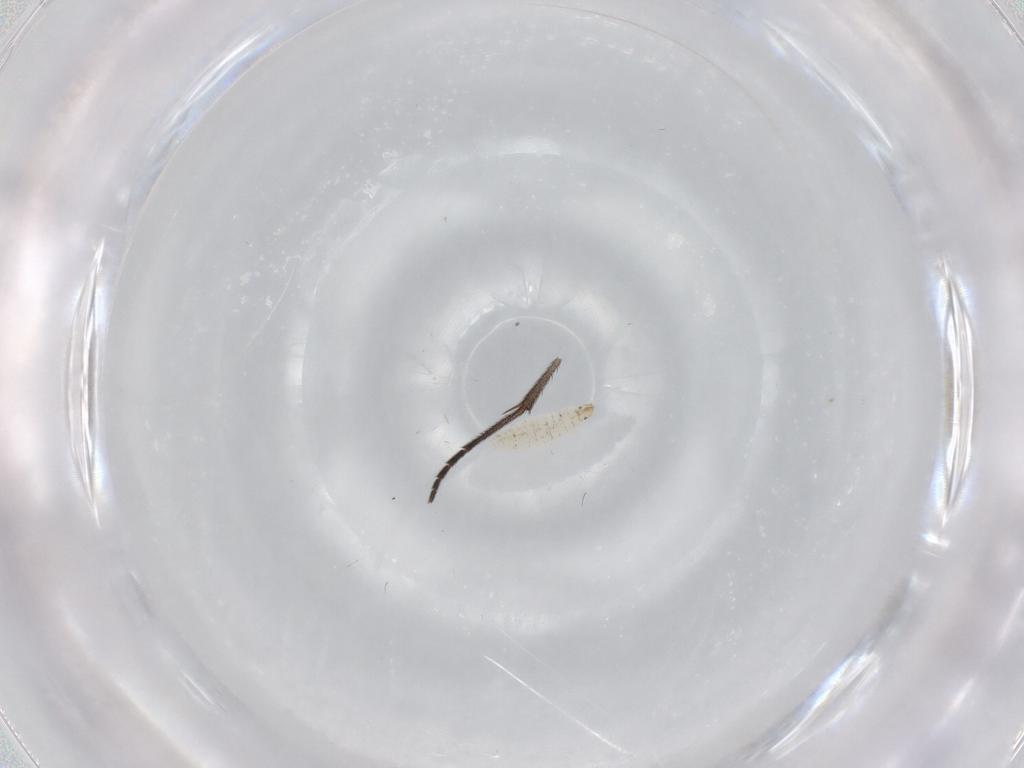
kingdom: Animalia
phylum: Arthropoda
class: Insecta
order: Diptera
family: Sciaridae
